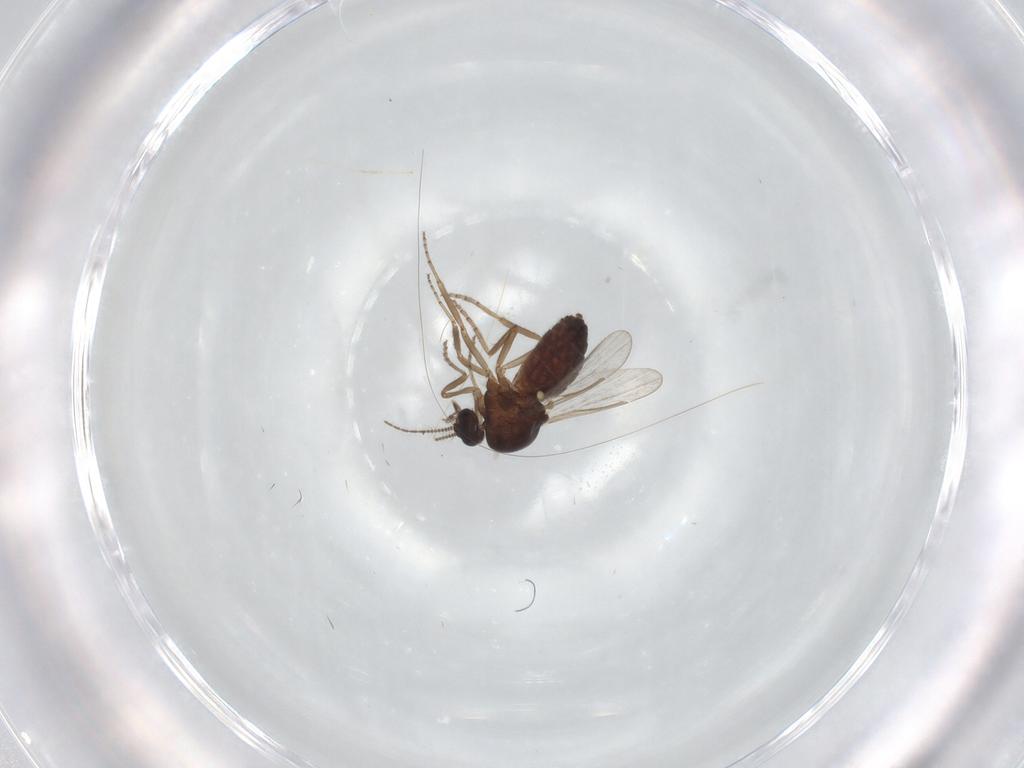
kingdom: Animalia
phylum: Arthropoda
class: Insecta
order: Diptera
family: Ceratopogonidae
